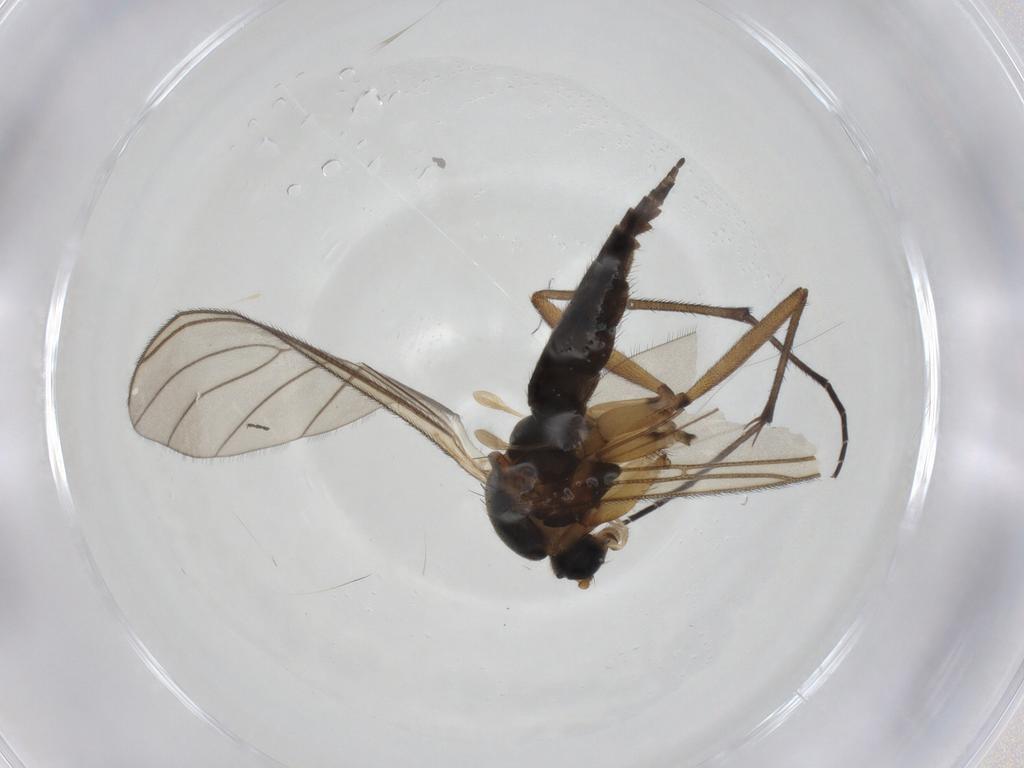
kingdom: Animalia
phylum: Arthropoda
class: Insecta
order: Diptera
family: Sciaridae
